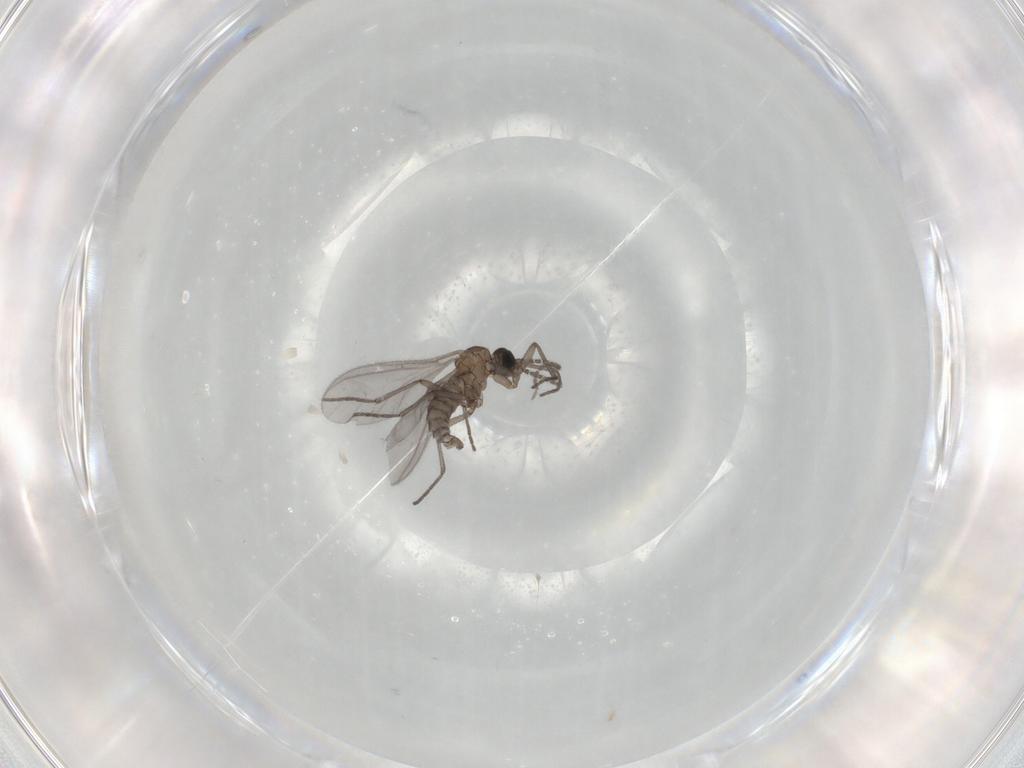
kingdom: Animalia
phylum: Arthropoda
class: Insecta
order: Diptera
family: Sciaridae
